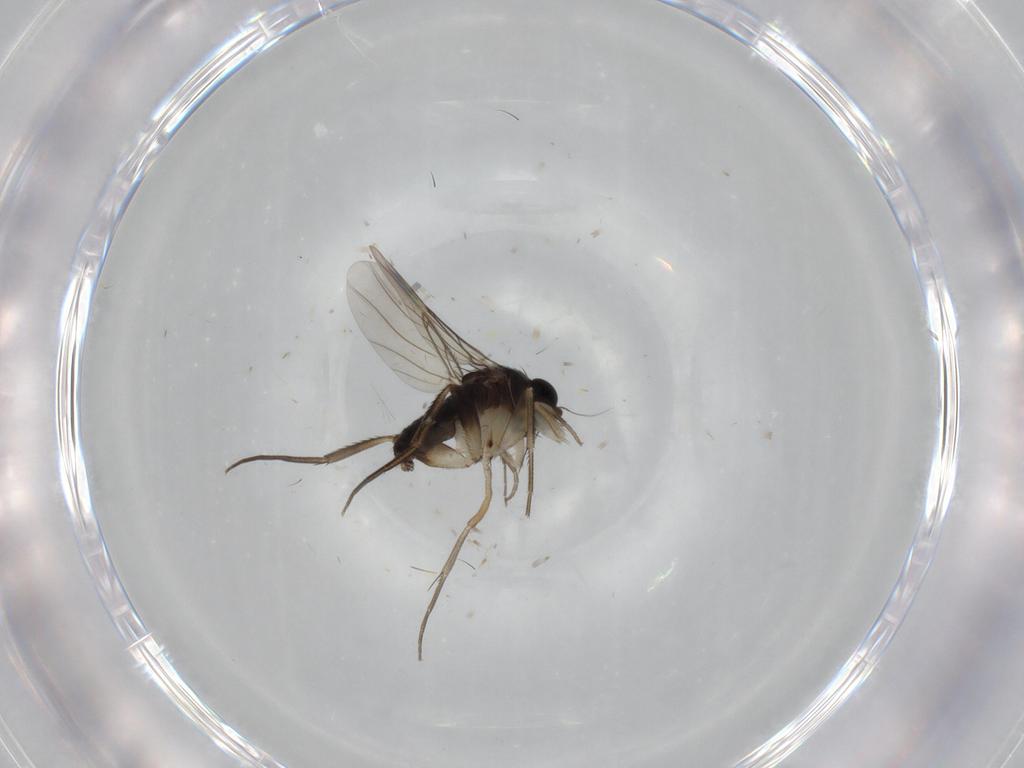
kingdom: Animalia
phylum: Arthropoda
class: Insecta
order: Diptera
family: Phoridae
